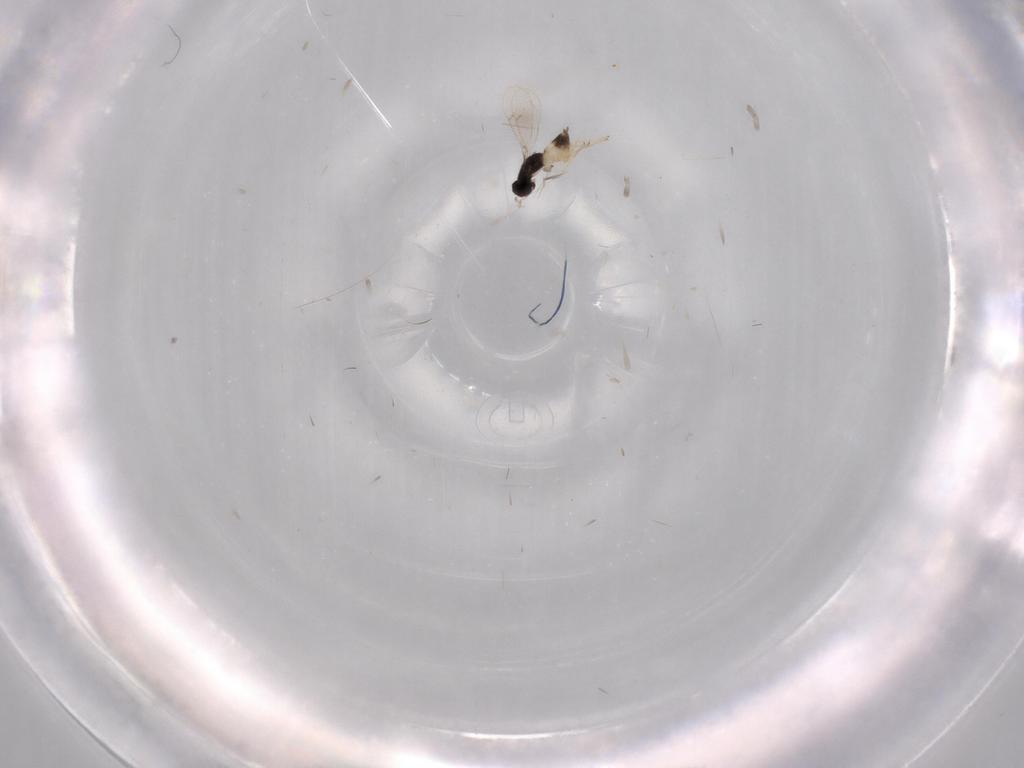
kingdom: Animalia
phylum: Arthropoda
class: Insecta
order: Hymenoptera
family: Eulophidae
